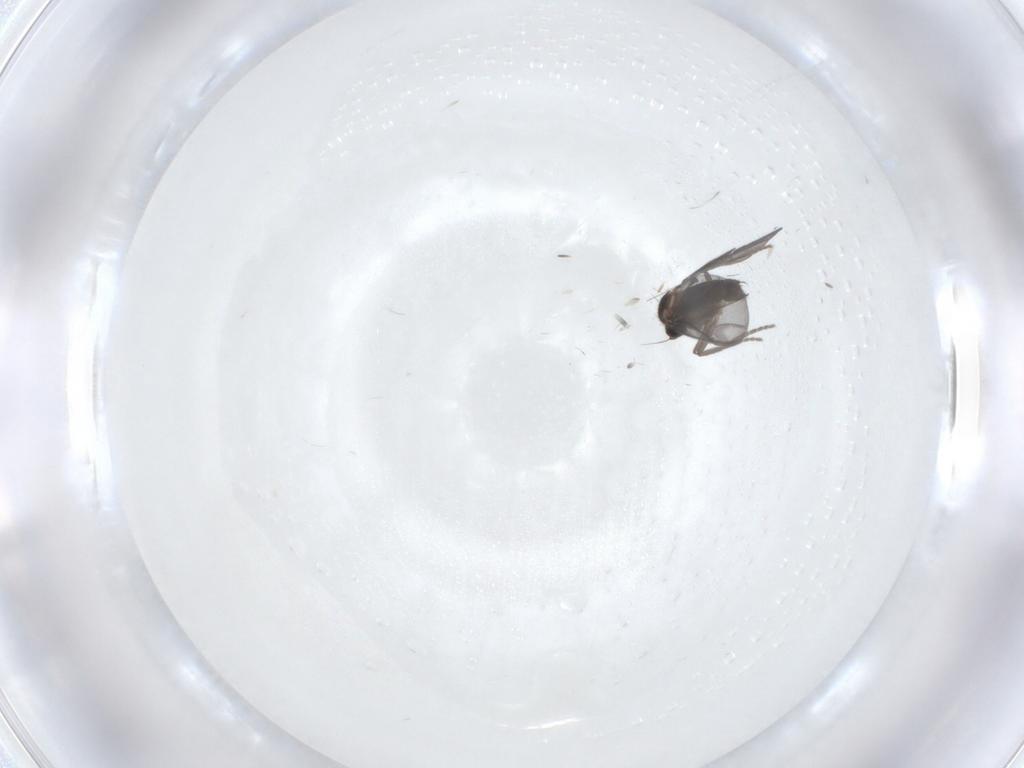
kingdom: Animalia
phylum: Arthropoda
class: Insecta
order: Diptera
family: Phoridae
